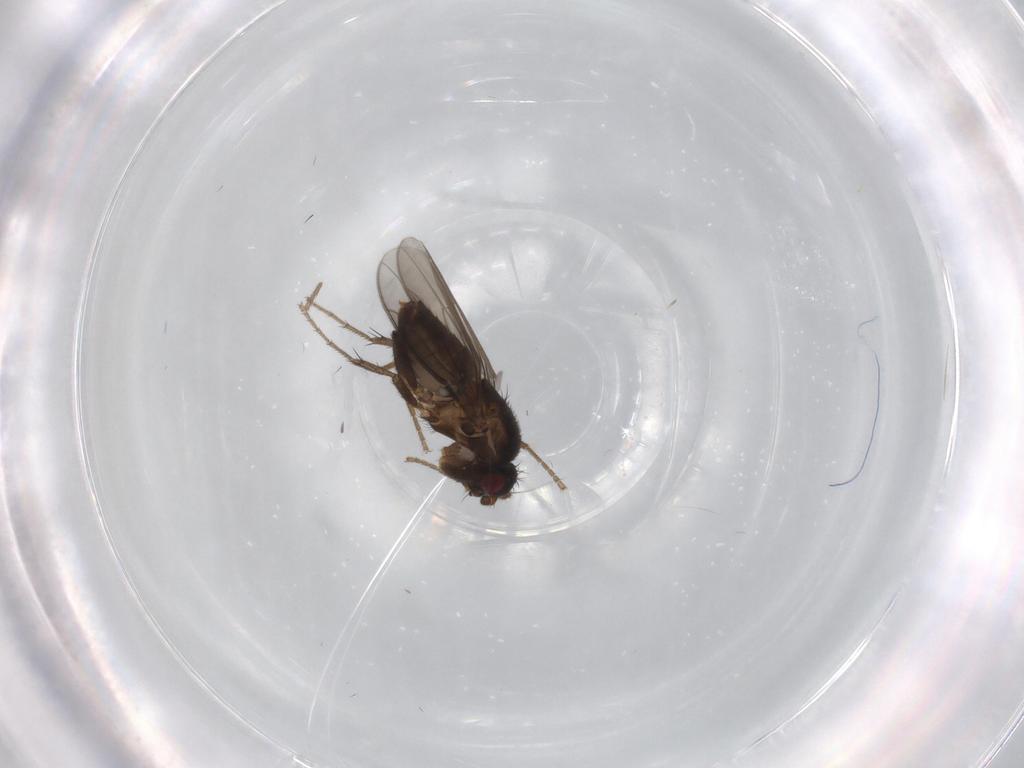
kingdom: Animalia
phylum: Arthropoda
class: Insecta
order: Diptera
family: Sphaeroceridae
